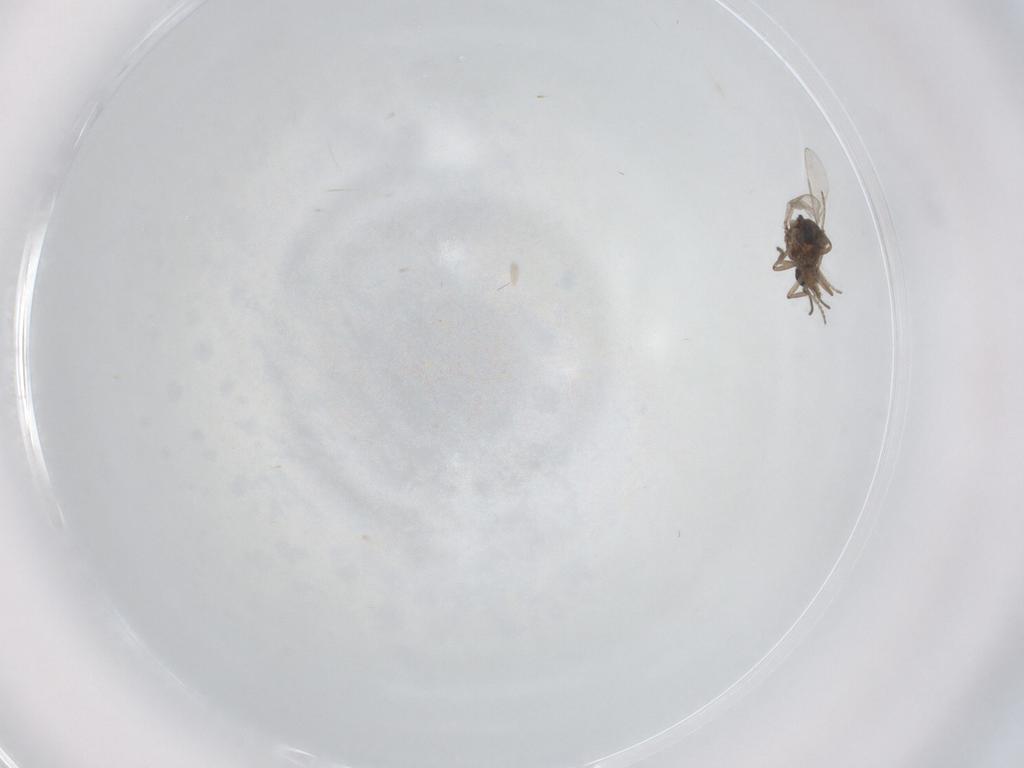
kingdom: Animalia
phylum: Arthropoda
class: Insecta
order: Diptera
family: Ceratopogonidae
